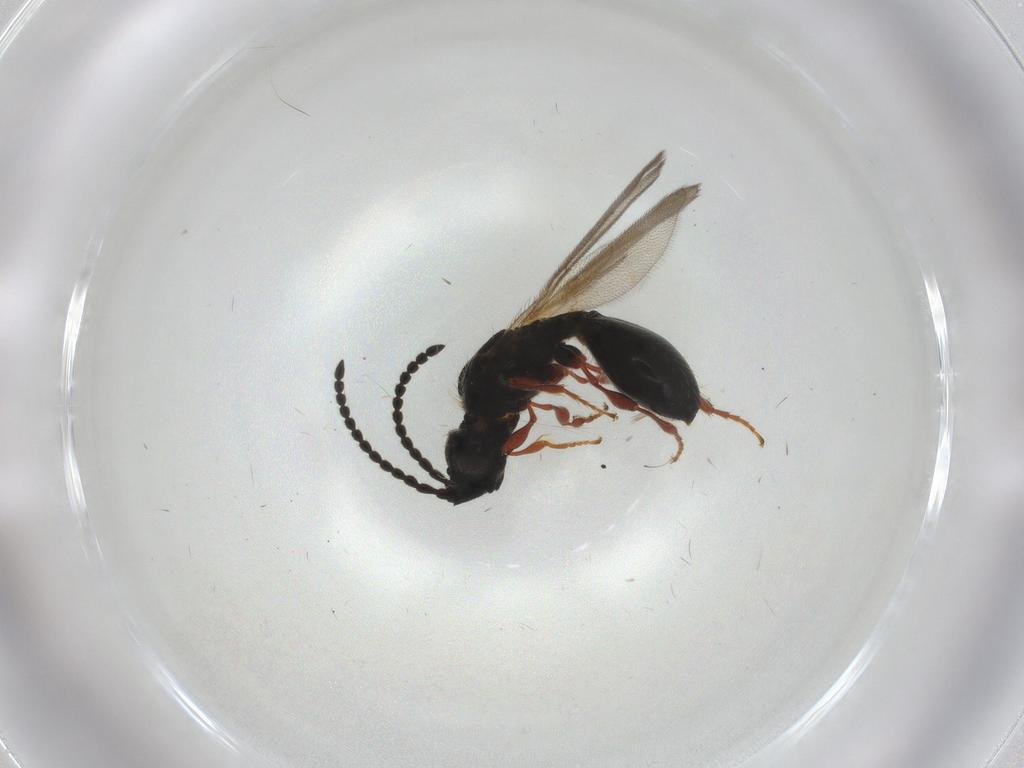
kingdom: Animalia
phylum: Arthropoda
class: Insecta
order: Hymenoptera
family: Diapriidae
